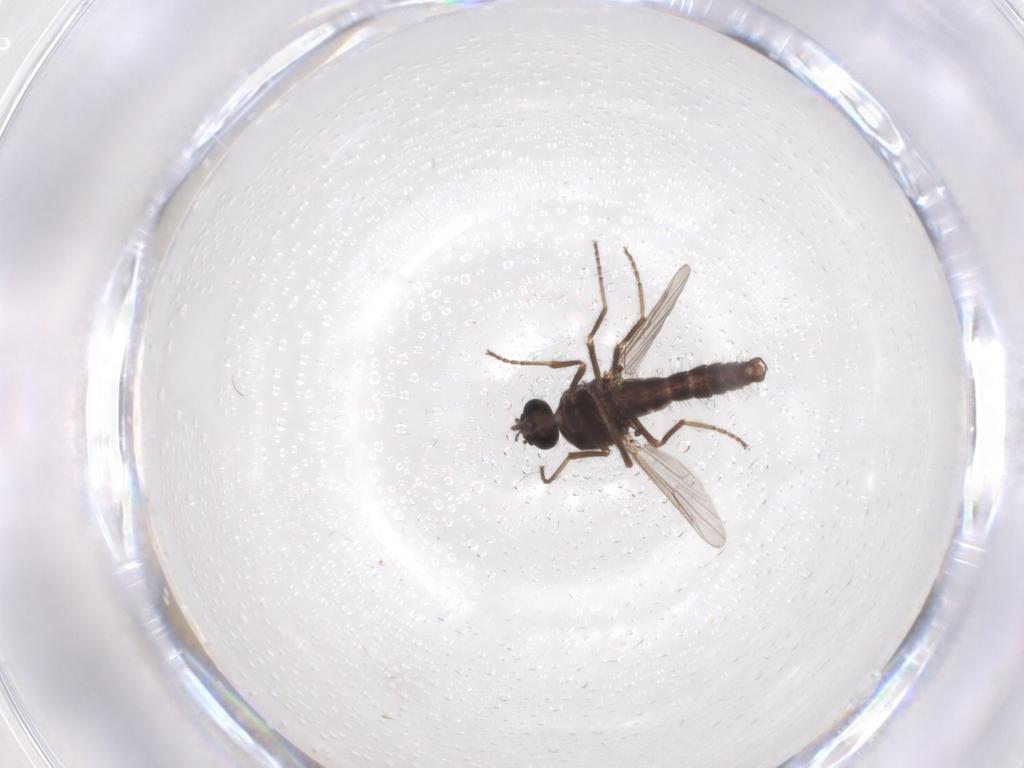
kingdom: Animalia
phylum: Arthropoda
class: Insecta
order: Diptera
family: Ceratopogonidae
